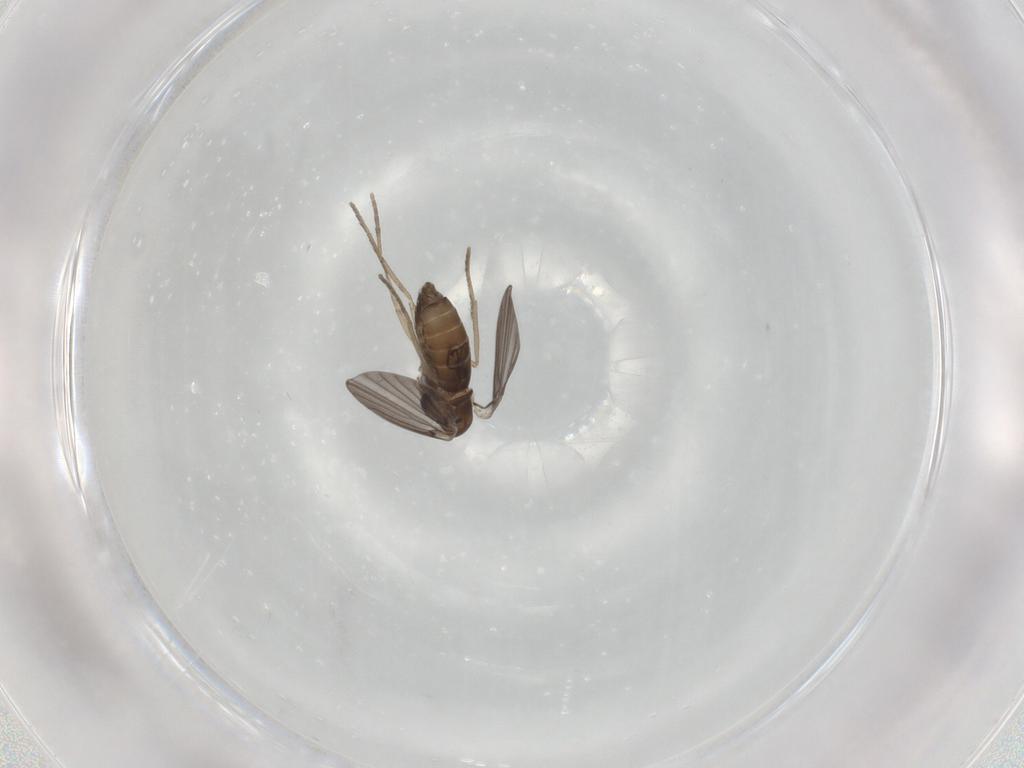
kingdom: Animalia
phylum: Arthropoda
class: Insecta
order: Diptera
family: Psychodidae
